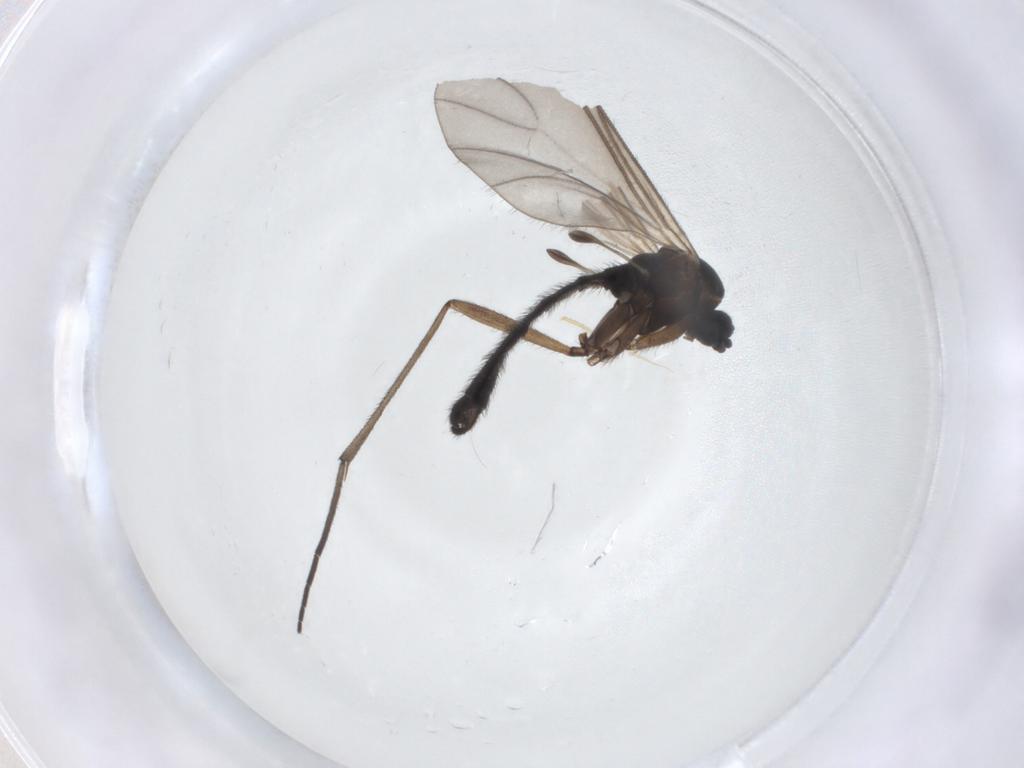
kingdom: Animalia
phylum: Arthropoda
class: Insecta
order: Diptera
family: Sciaridae
